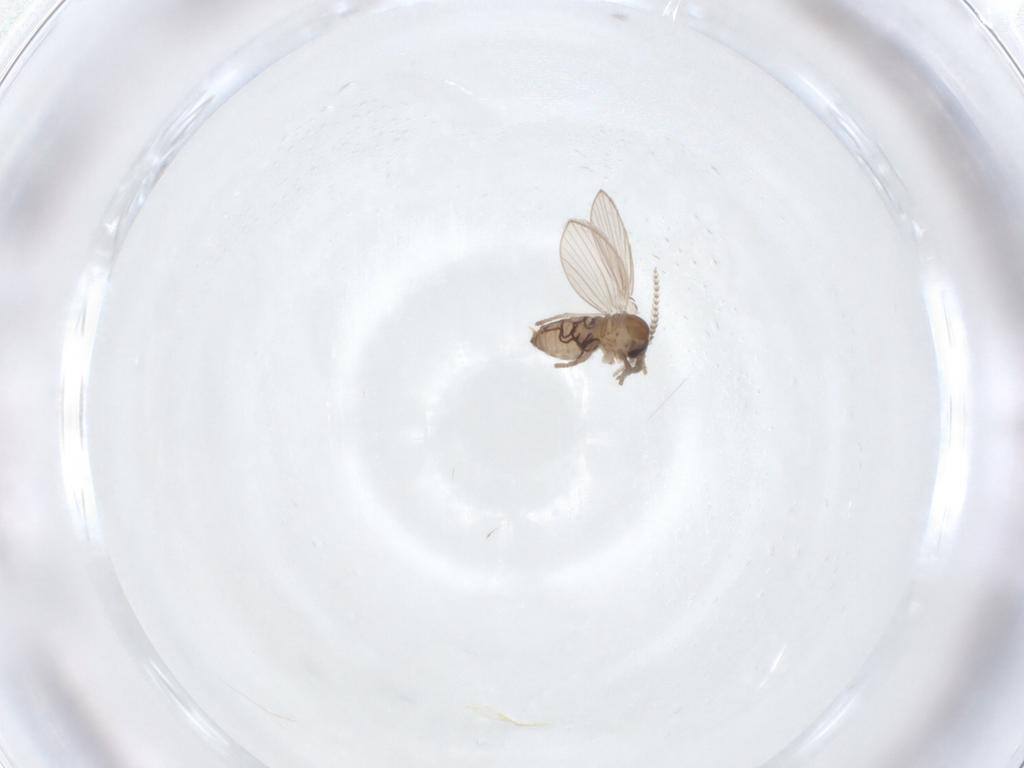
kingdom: Animalia
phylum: Arthropoda
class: Insecta
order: Diptera
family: Psychodidae
